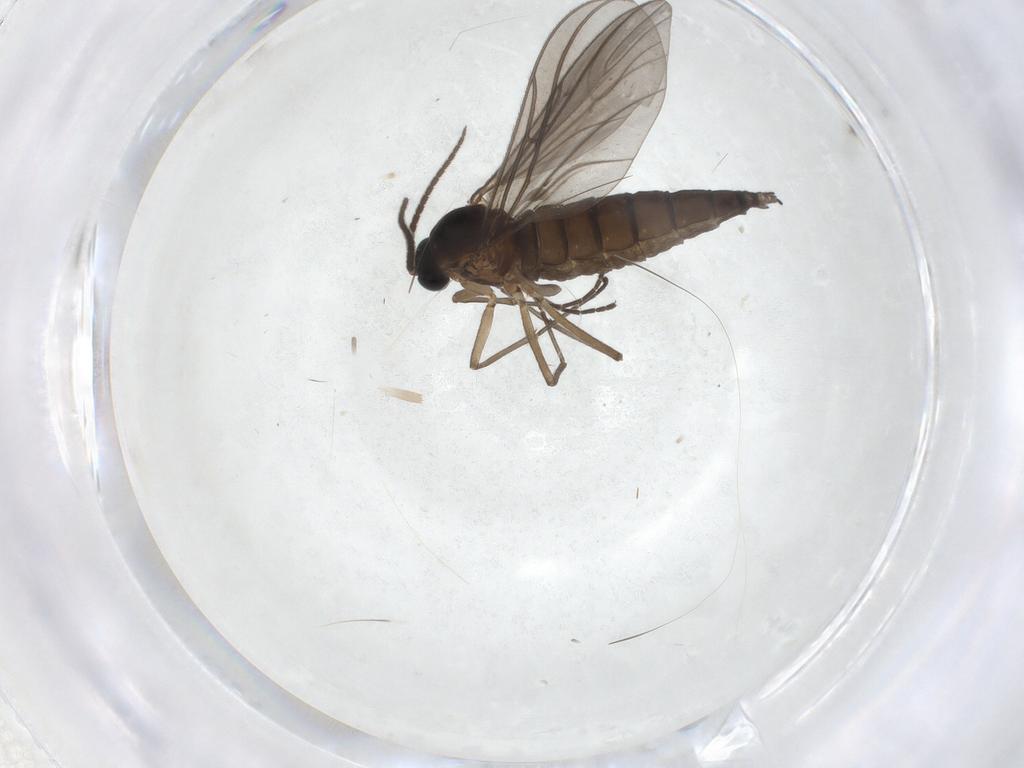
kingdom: Animalia
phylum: Arthropoda
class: Insecta
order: Diptera
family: Sciaridae
